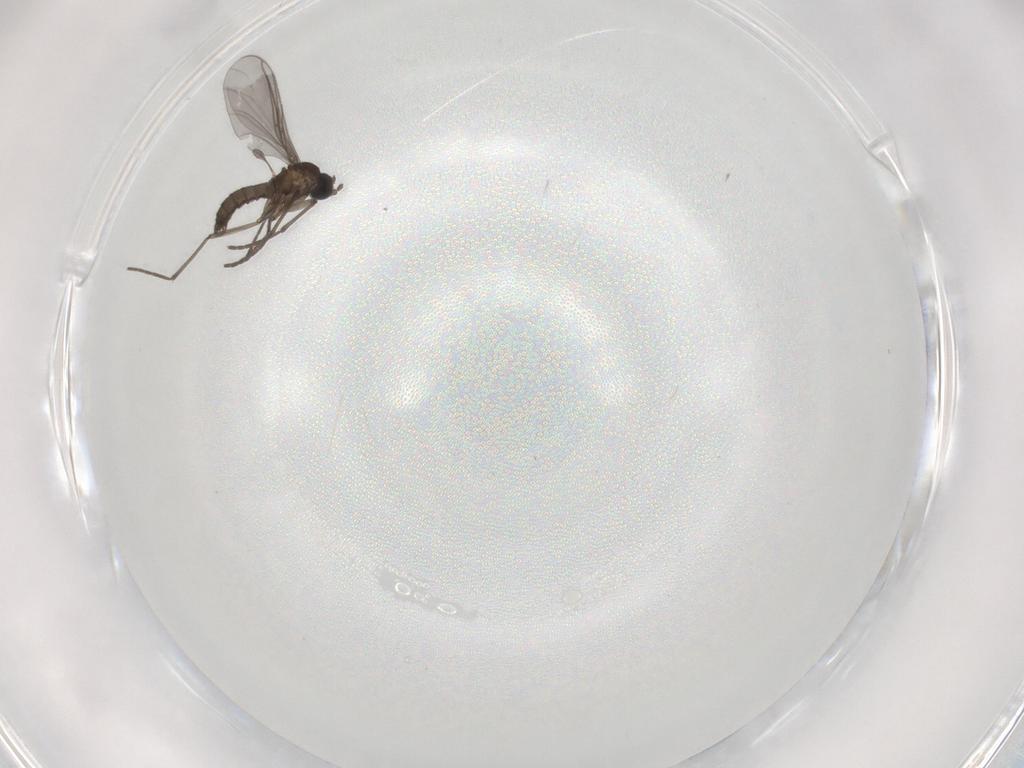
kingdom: Animalia
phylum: Arthropoda
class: Insecta
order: Diptera
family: Sciaridae
